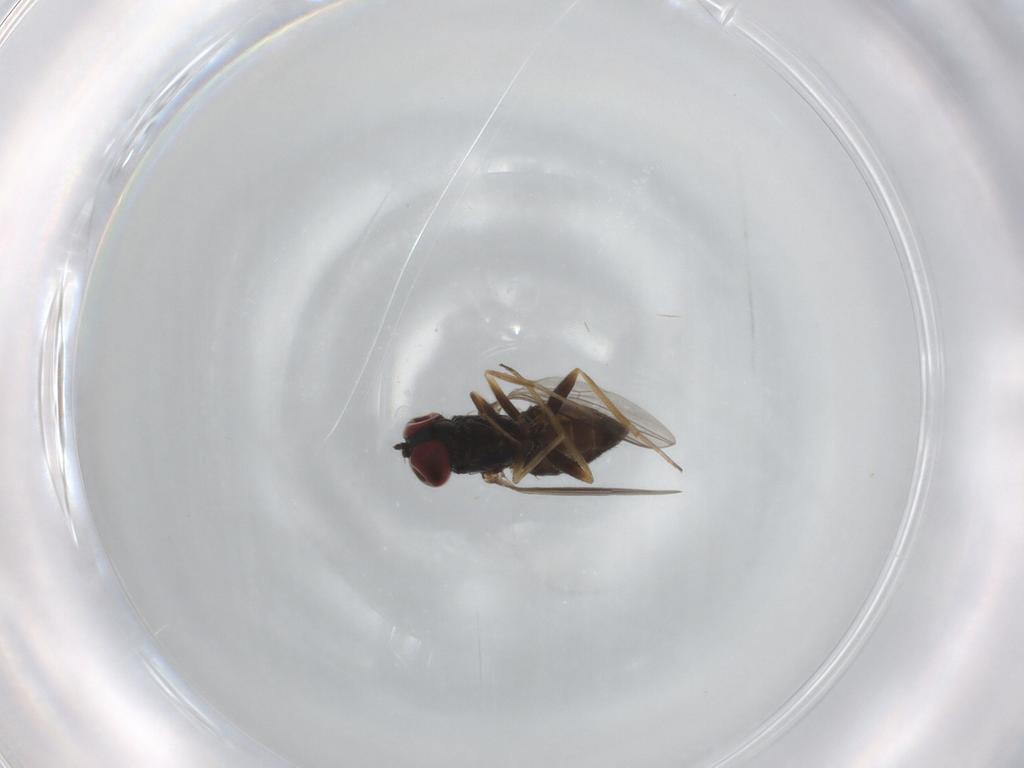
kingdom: Animalia
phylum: Arthropoda
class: Insecta
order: Diptera
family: Dolichopodidae
